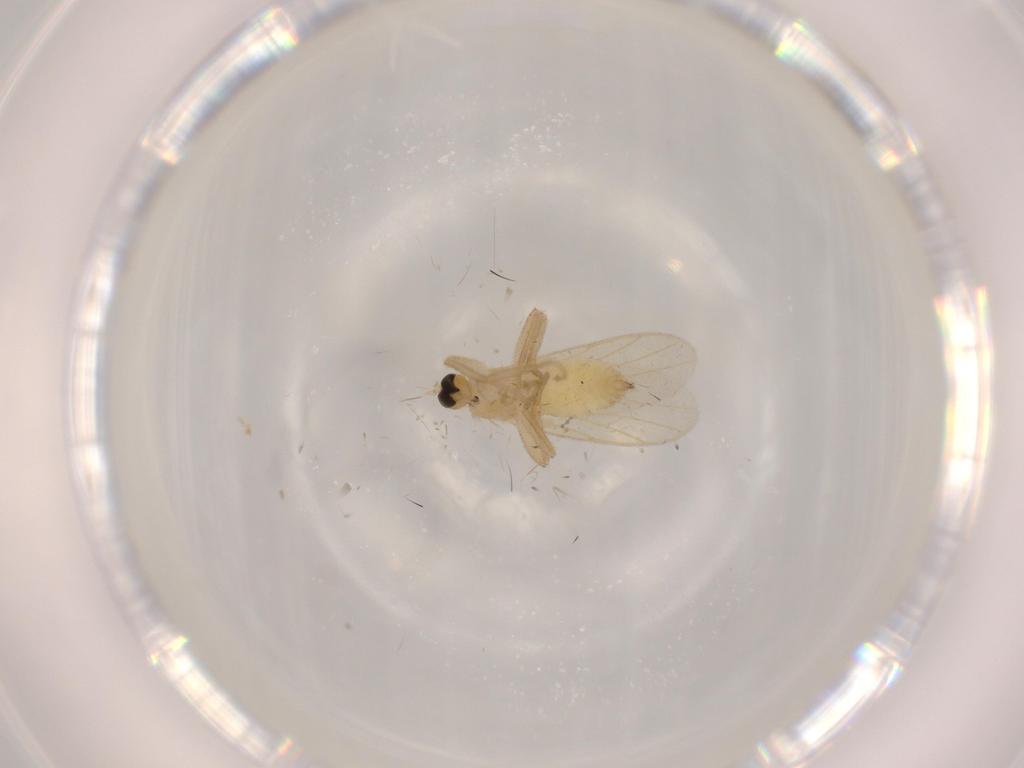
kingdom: Animalia
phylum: Arthropoda
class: Insecta
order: Diptera
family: Hybotidae
